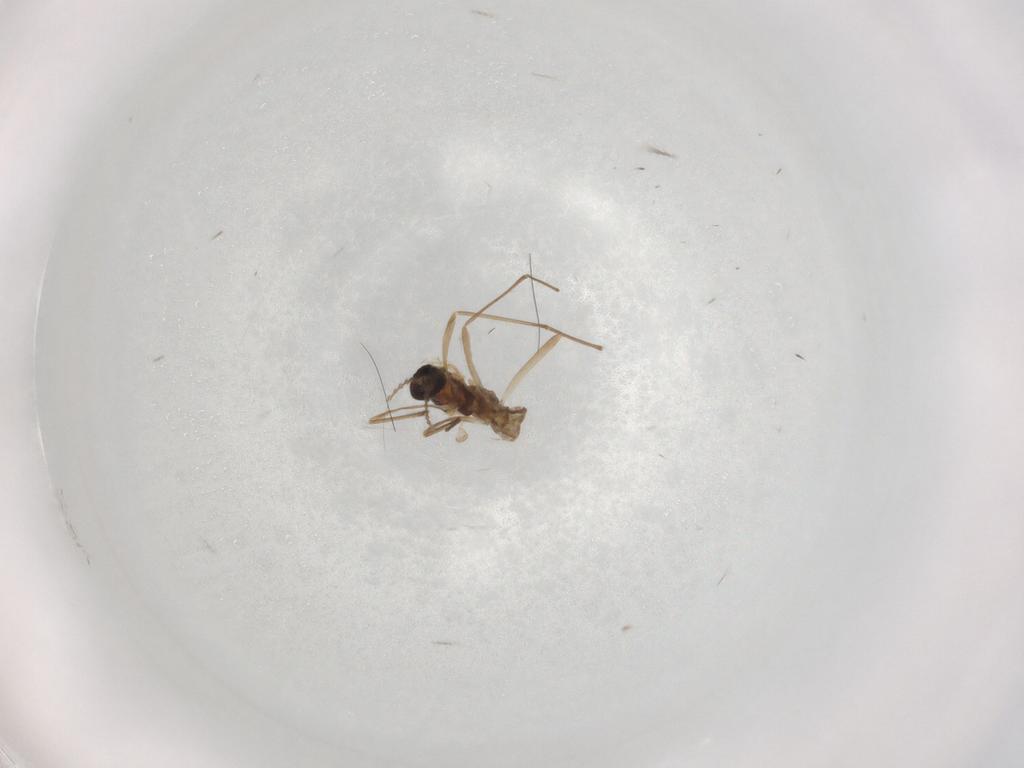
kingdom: Animalia
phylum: Arthropoda
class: Insecta
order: Diptera
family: Cecidomyiidae
